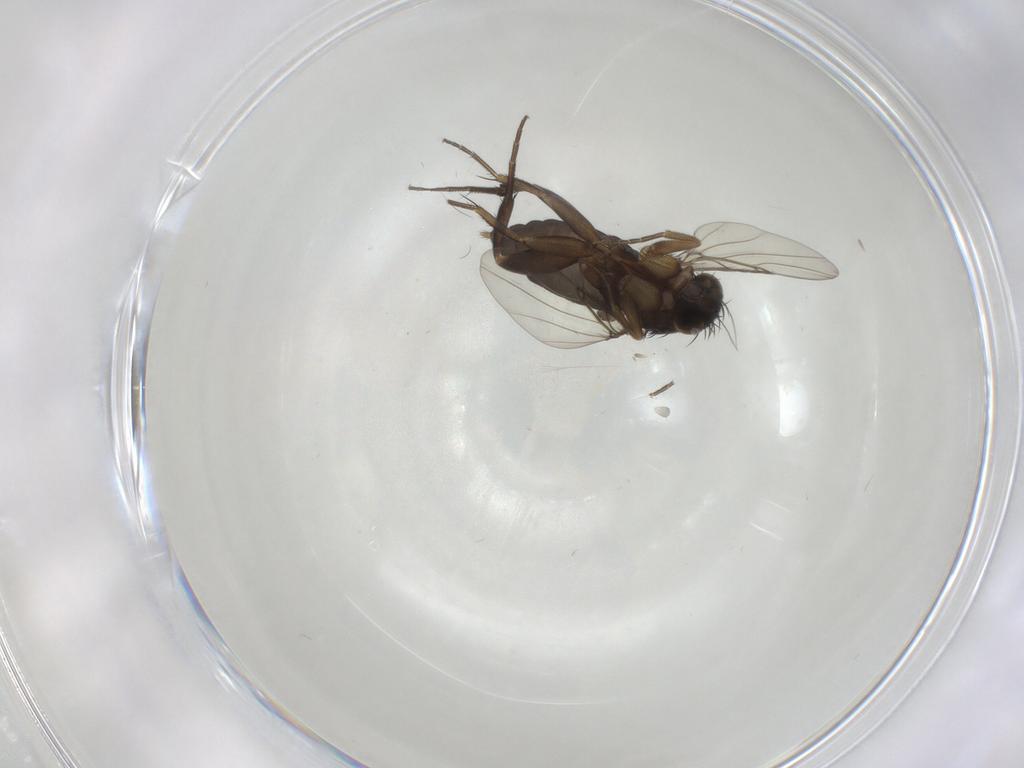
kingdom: Animalia
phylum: Arthropoda
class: Insecta
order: Diptera
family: Phoridae
